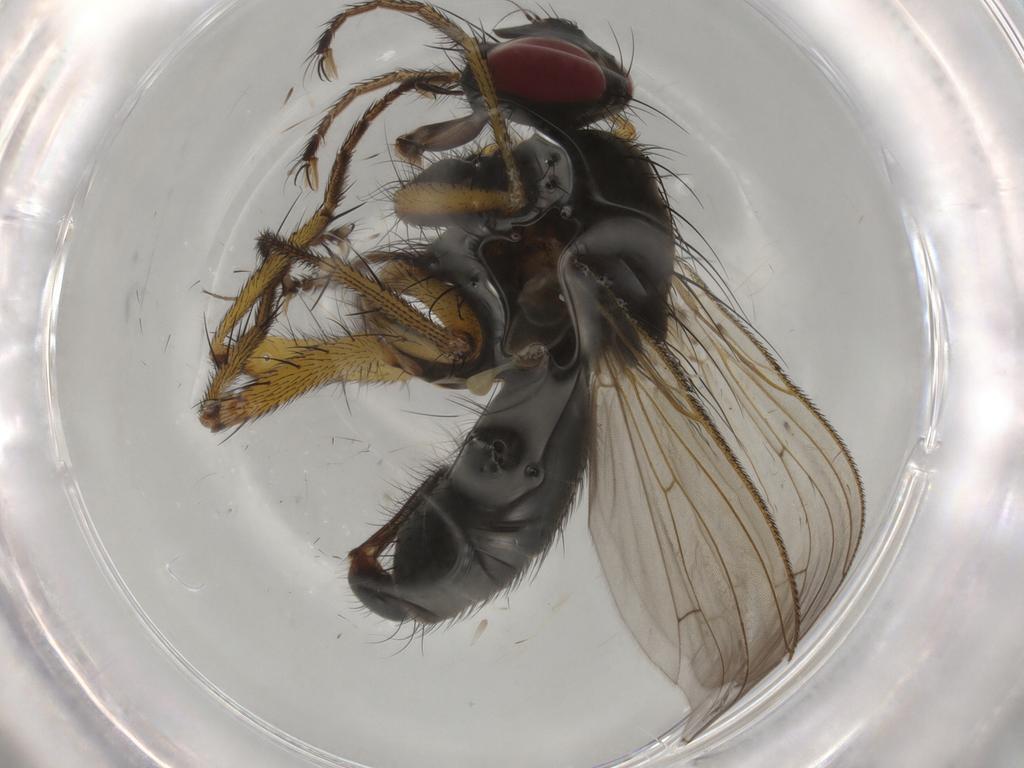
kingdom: Animalia
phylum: Arthropoda
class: Insecta
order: Diptera
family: Muscidae
